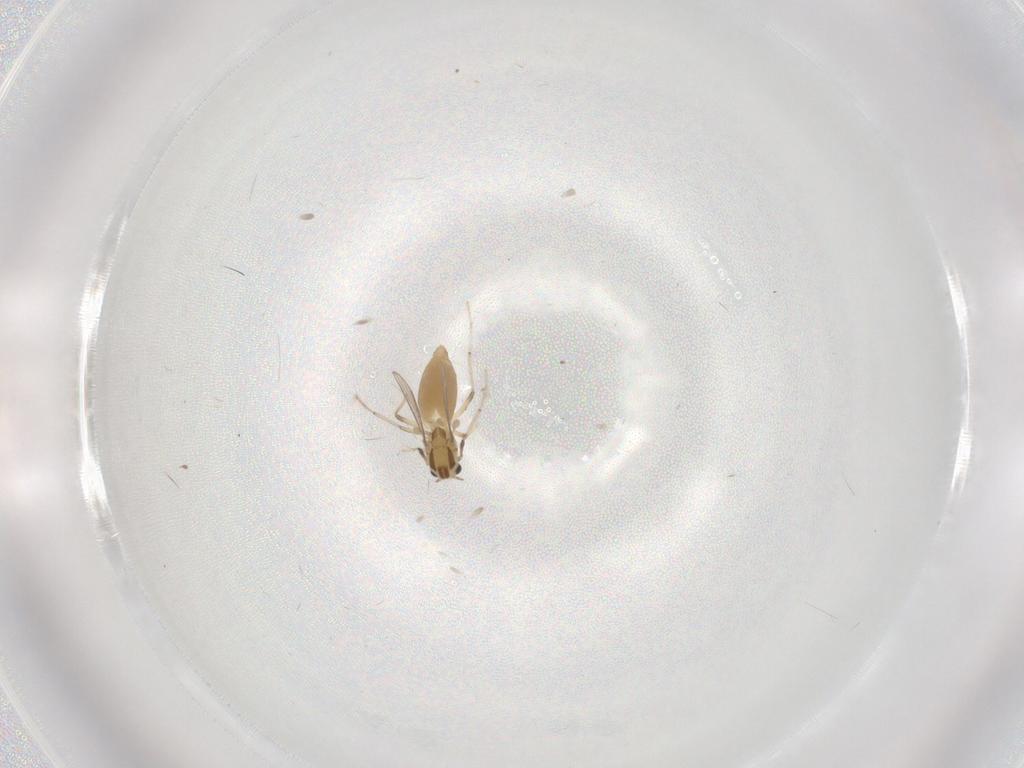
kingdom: Animalia
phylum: Arthropoda
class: Insecta
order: Diptera
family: Chironomidae
